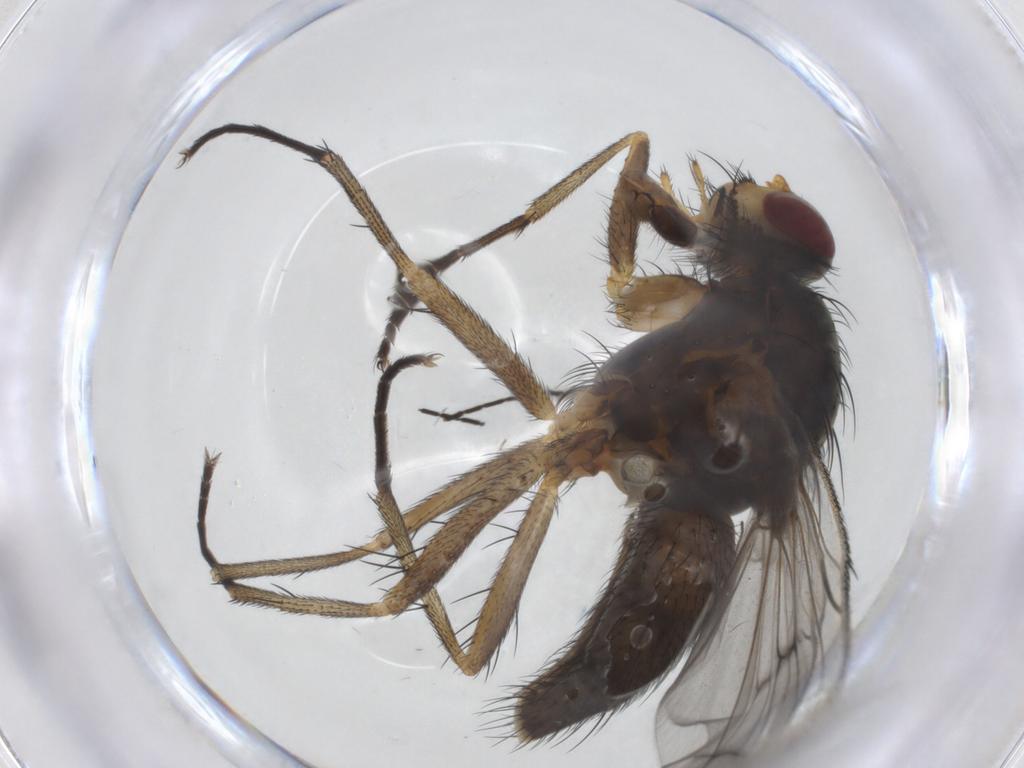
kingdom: Animalia
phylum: Arthropoda
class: Insecta
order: Diptera
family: Anthomyiidae
